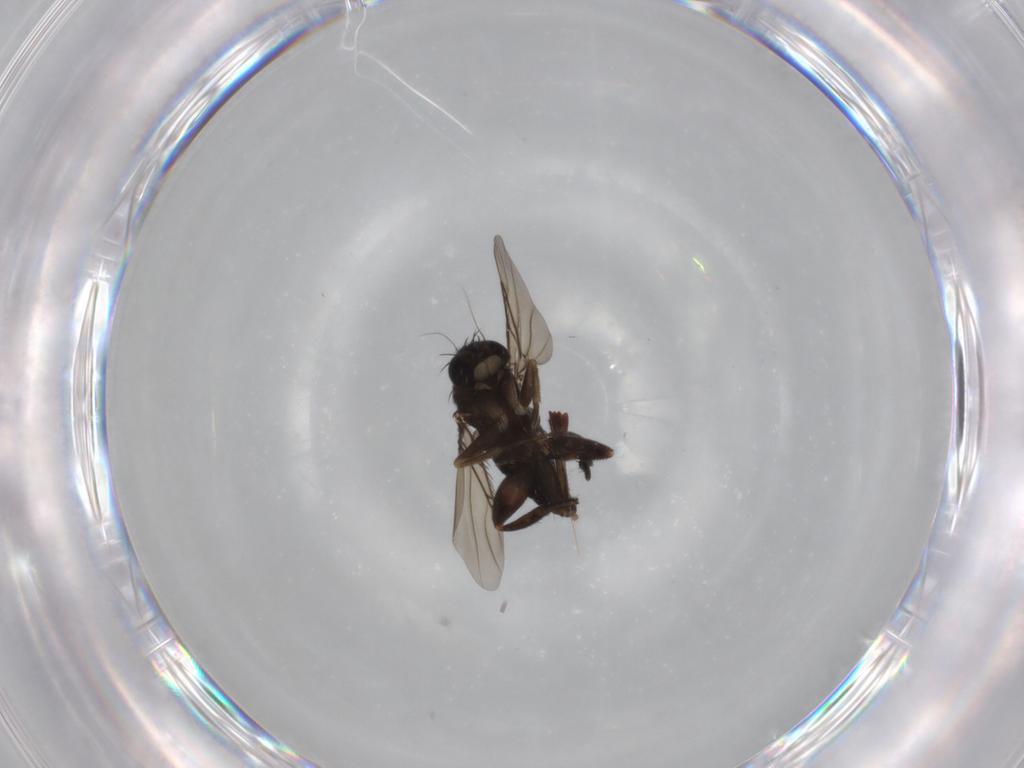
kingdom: Animalia
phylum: Arthropoda
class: Insecta
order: Diptera
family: Phoridae
